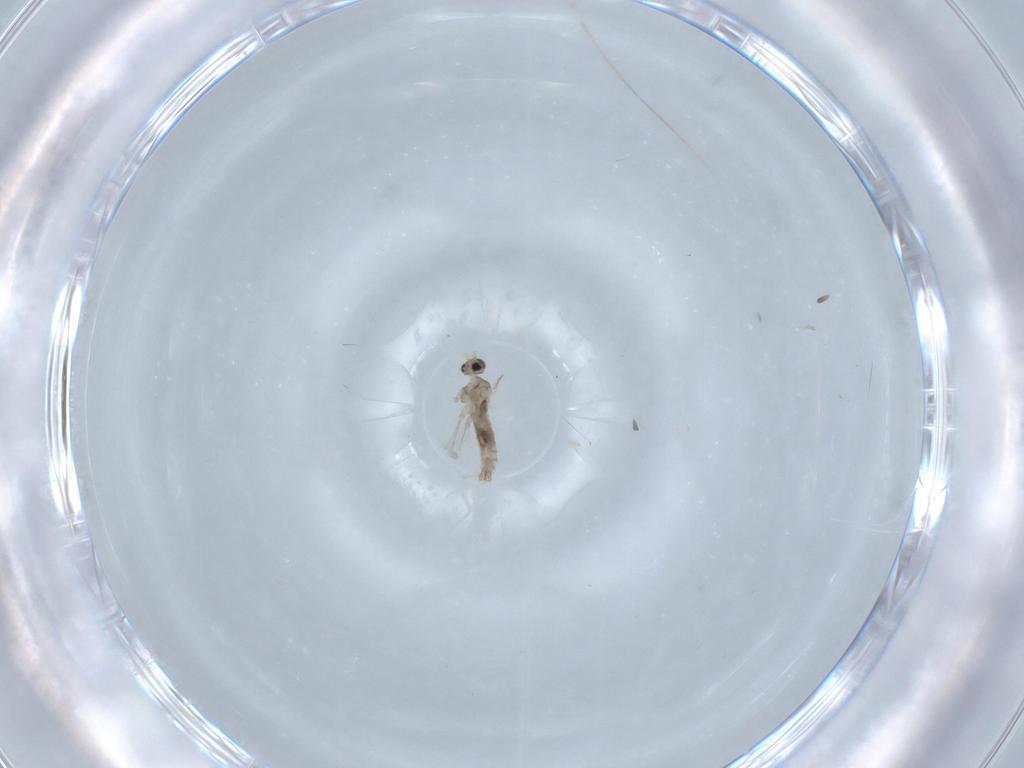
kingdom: Animalia
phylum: Arthropoda
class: Insecta
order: Diptera
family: Cecidomyiidae
